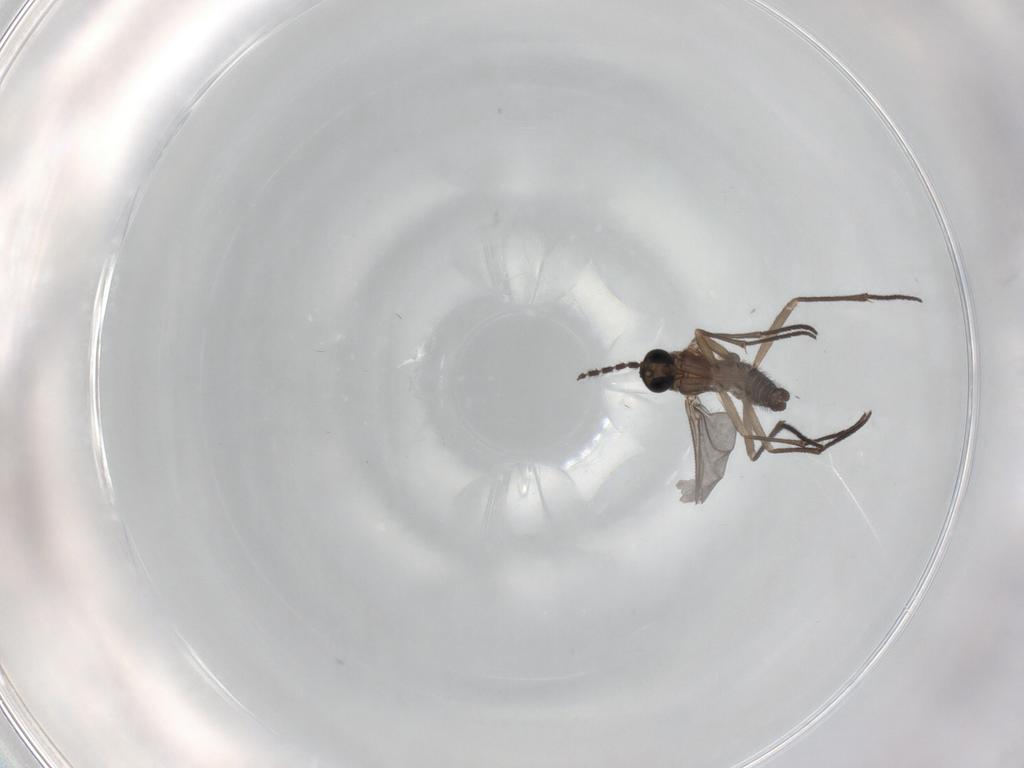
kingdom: Animalia
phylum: Arthropoda
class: Insecta
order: Diptera
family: Sciaridae
